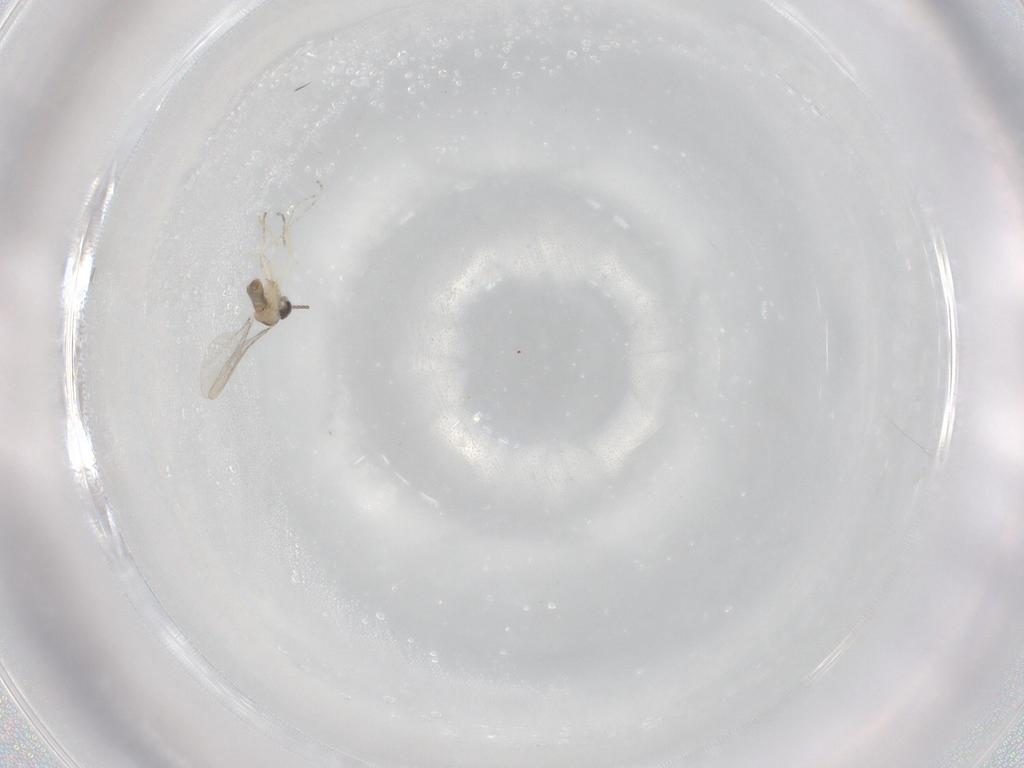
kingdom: Animalia
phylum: Arthropoda
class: Insecta
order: Diptera
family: Cecidomyiidae
